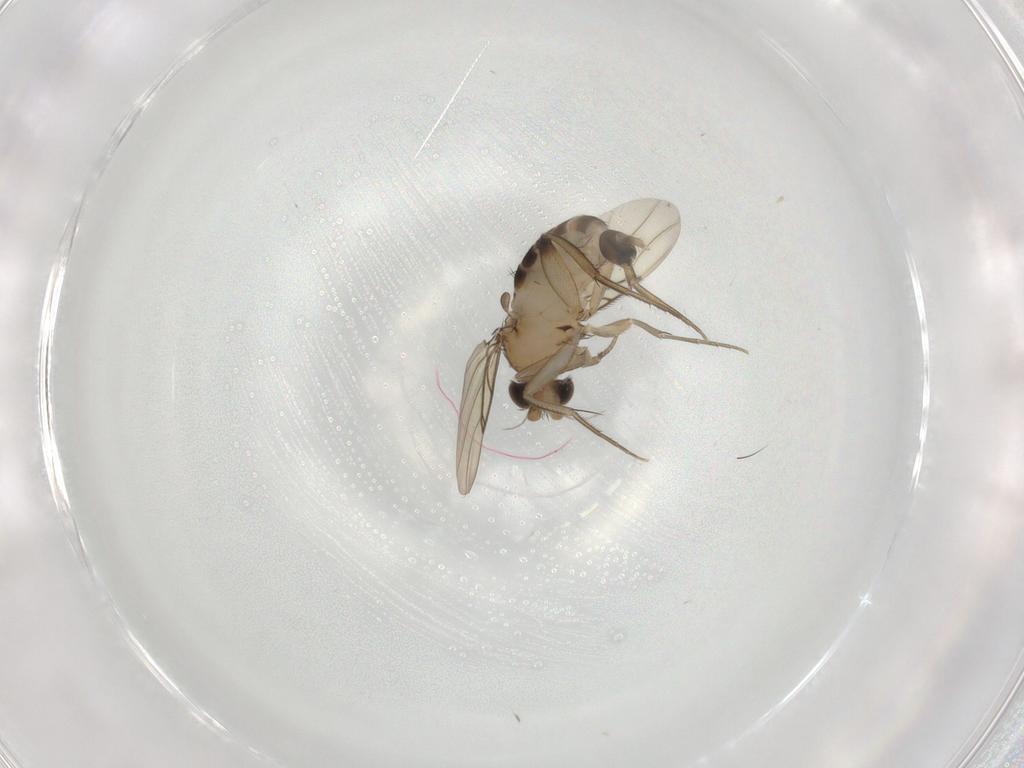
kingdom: Animalia
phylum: Arthropoda
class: Insecta
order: Diptera
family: Phoridae
